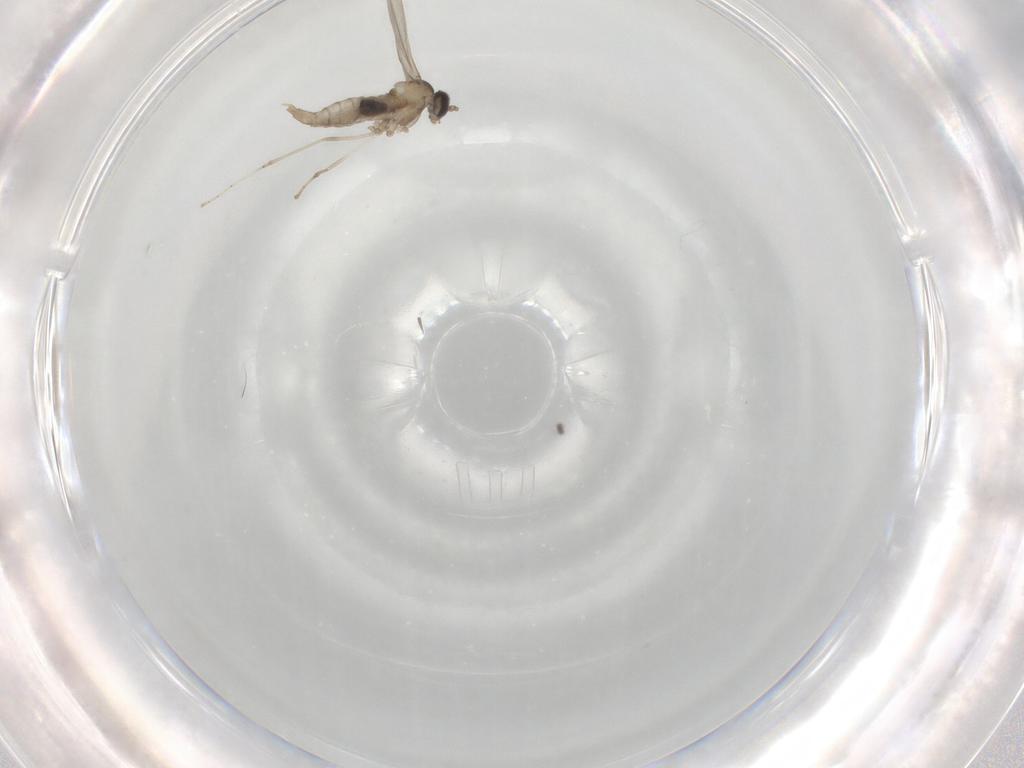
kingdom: Animalia
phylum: Arthropoda
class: Insecta
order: Diptera
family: Cecidomyiidae
